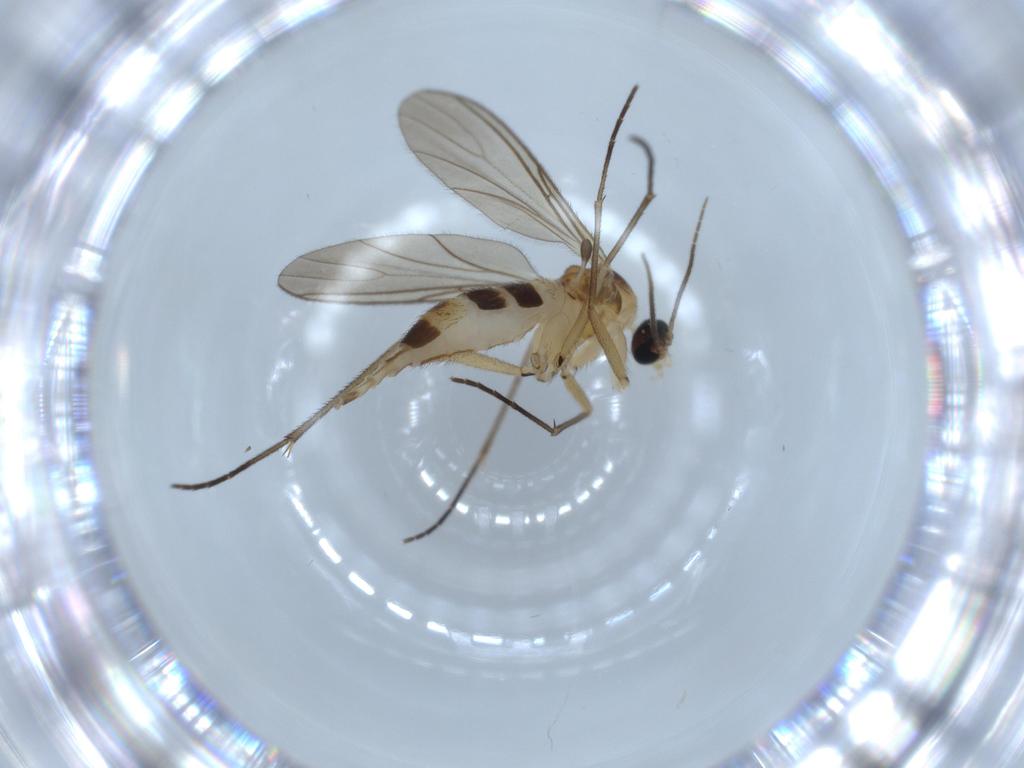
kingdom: Animalia
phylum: Arthropoda
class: Insecta
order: Diptera
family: Sciaridae
